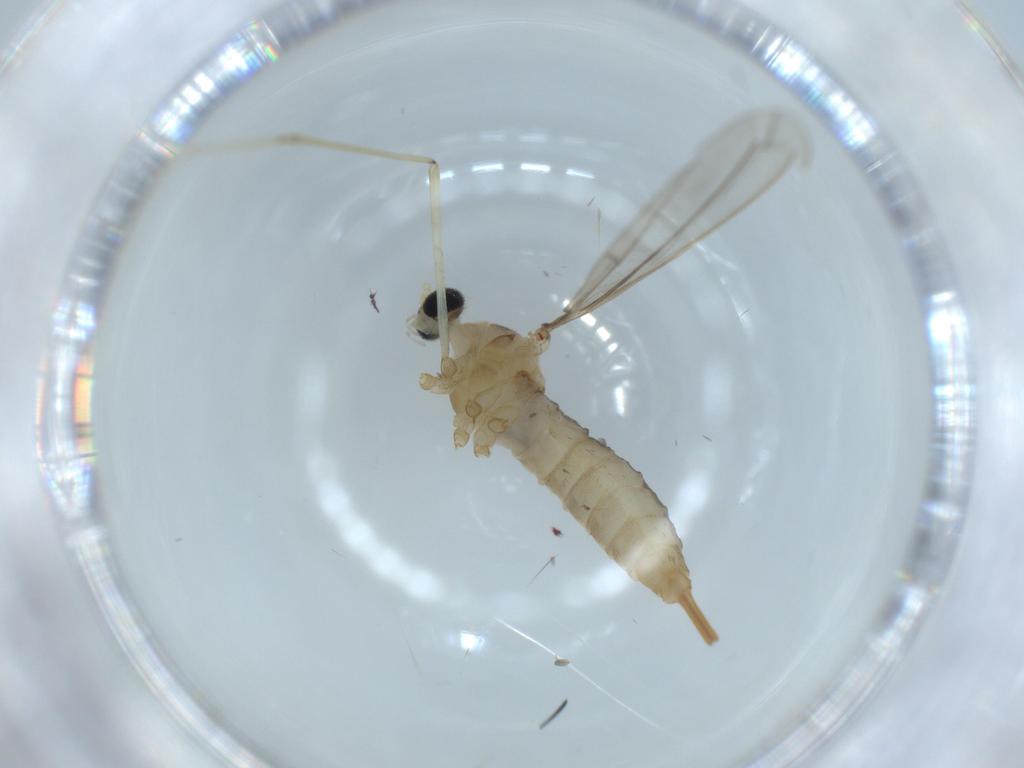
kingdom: Animalia
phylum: Arthropoda
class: Insecta
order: Diptera
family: Cecidomyiidae
